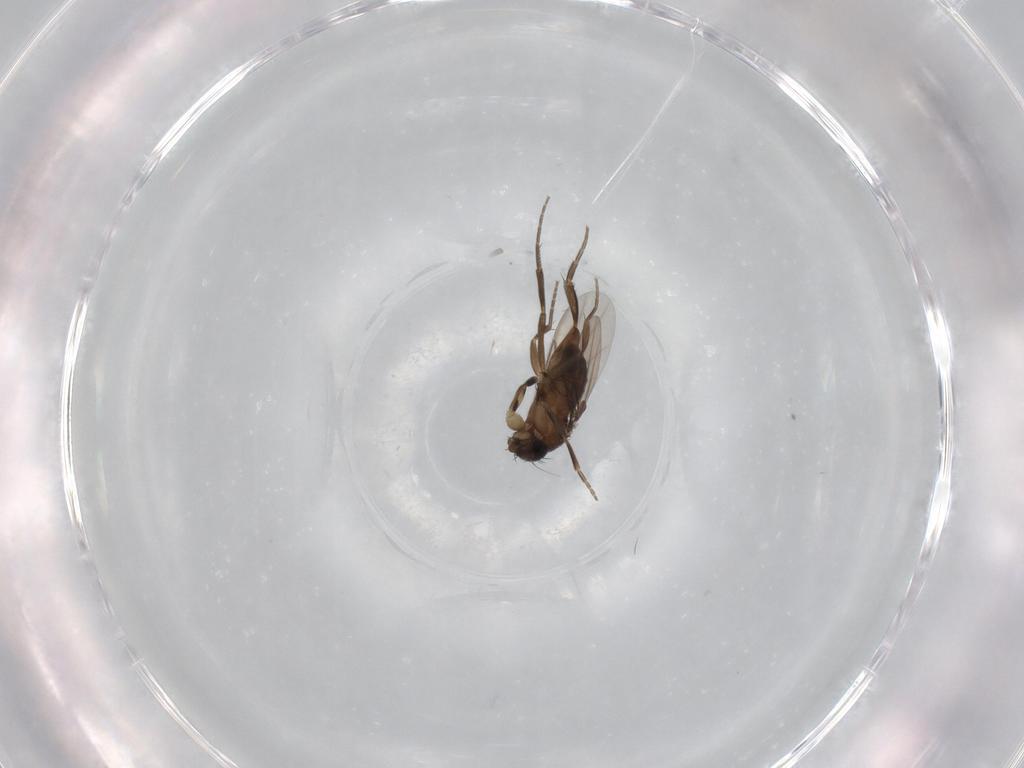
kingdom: Animalia
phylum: Arthropoda
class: Insecta
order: Diptera
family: Phoridae
